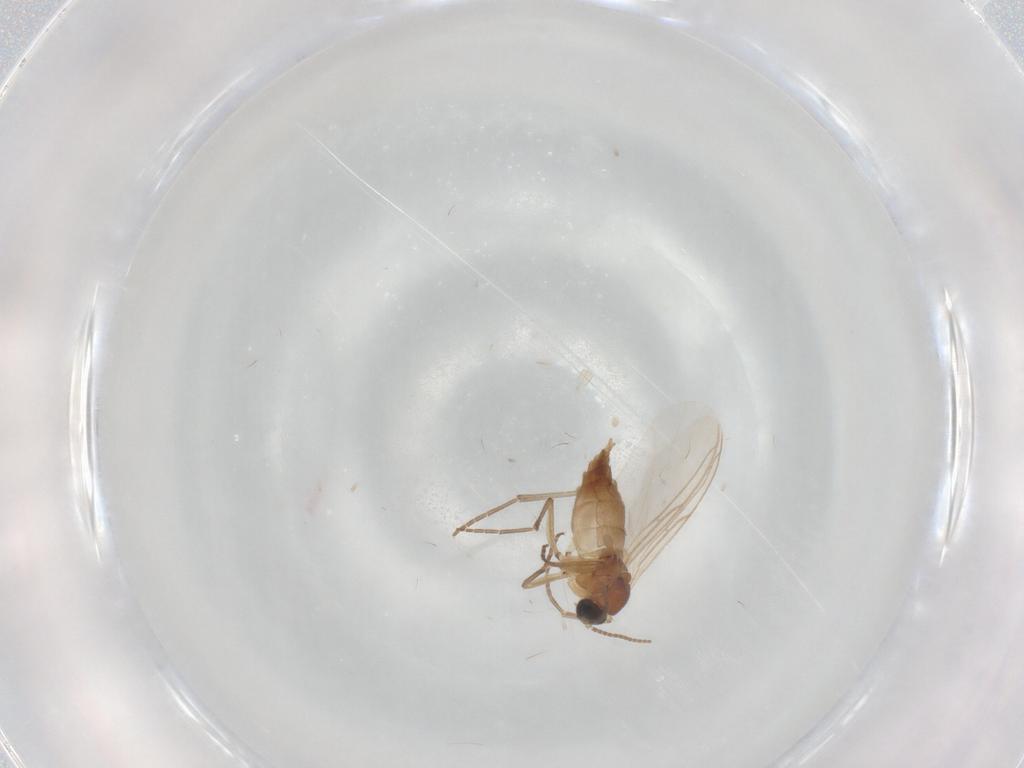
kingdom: Animalia
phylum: Arthropoda
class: Insecta
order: Diptera
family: Sciaridae
